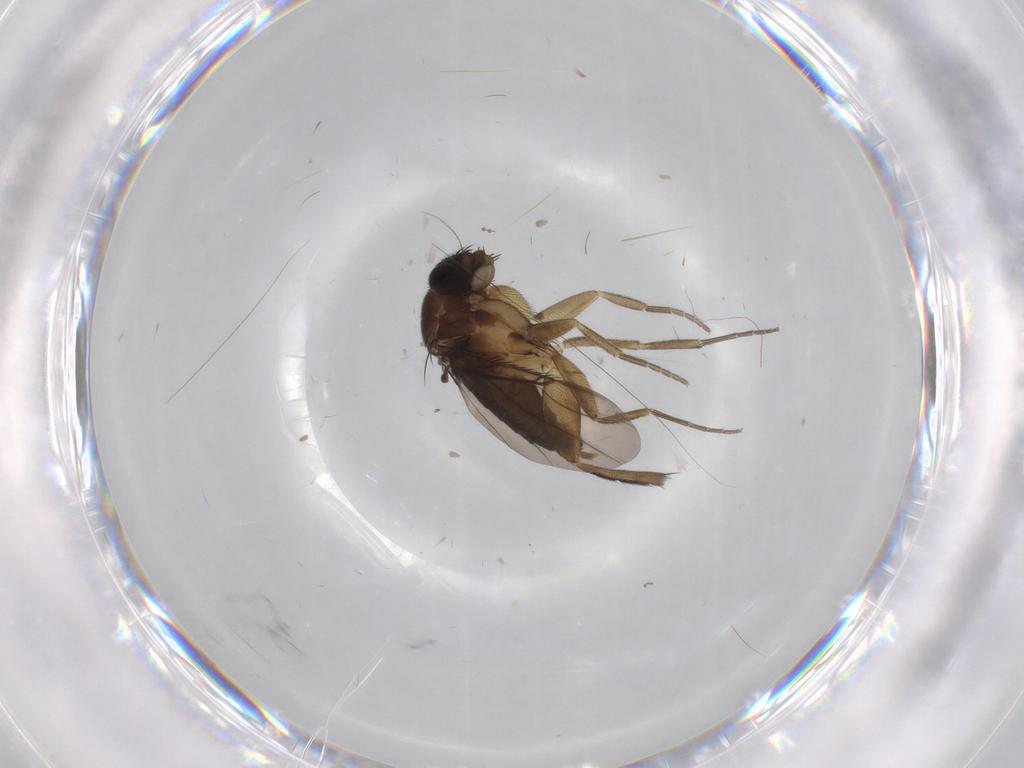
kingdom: Animalia
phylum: Arthropoda
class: Insecta
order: Diptera
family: Phoridae
